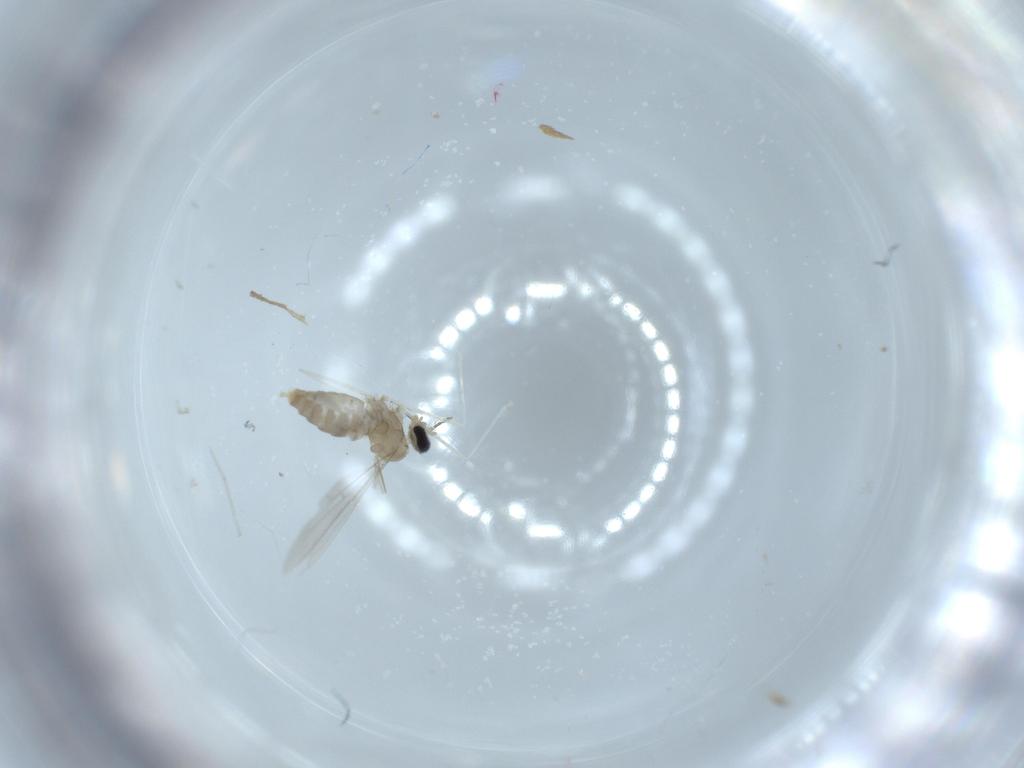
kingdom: Animalia
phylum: Arthropoda
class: Insecta
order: Diptera
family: Cecidomyiidae
